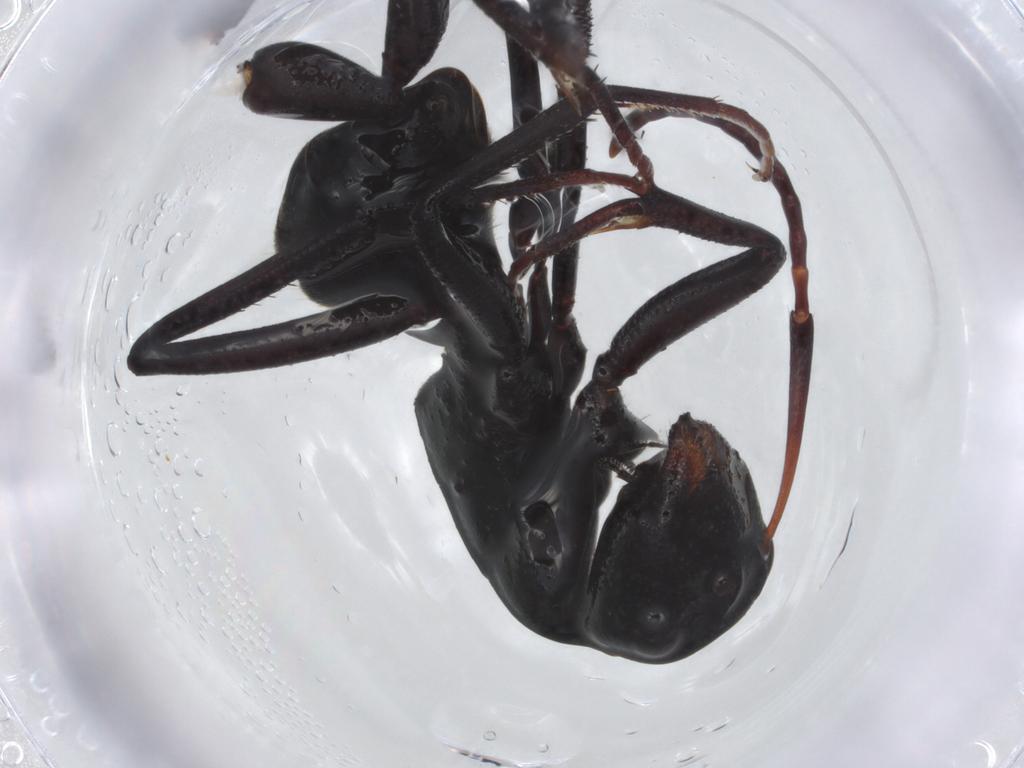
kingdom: Animalia
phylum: Arthropoda
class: Insecta
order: Hymenoptera
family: Formicidae
